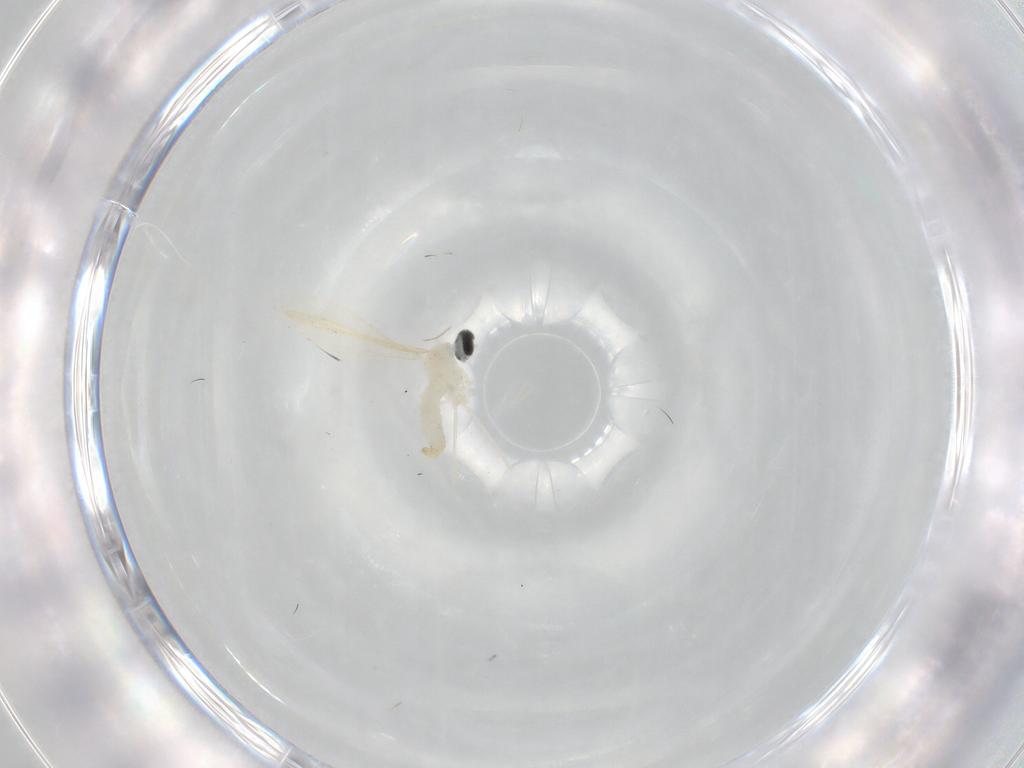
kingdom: Animalia
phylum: Arthropoda
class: Insecta
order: Diptera
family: Cecidomyiidae
